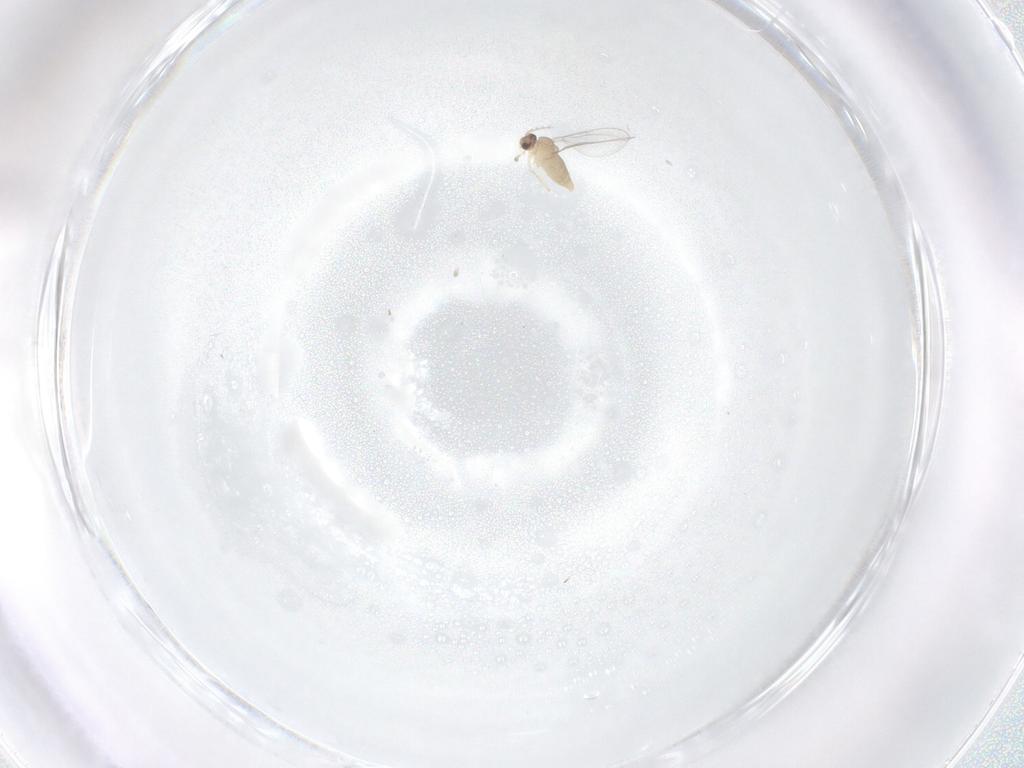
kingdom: Animalia
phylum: Arthropoda
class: Insecta
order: Diptera
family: Cecidomyiidae
